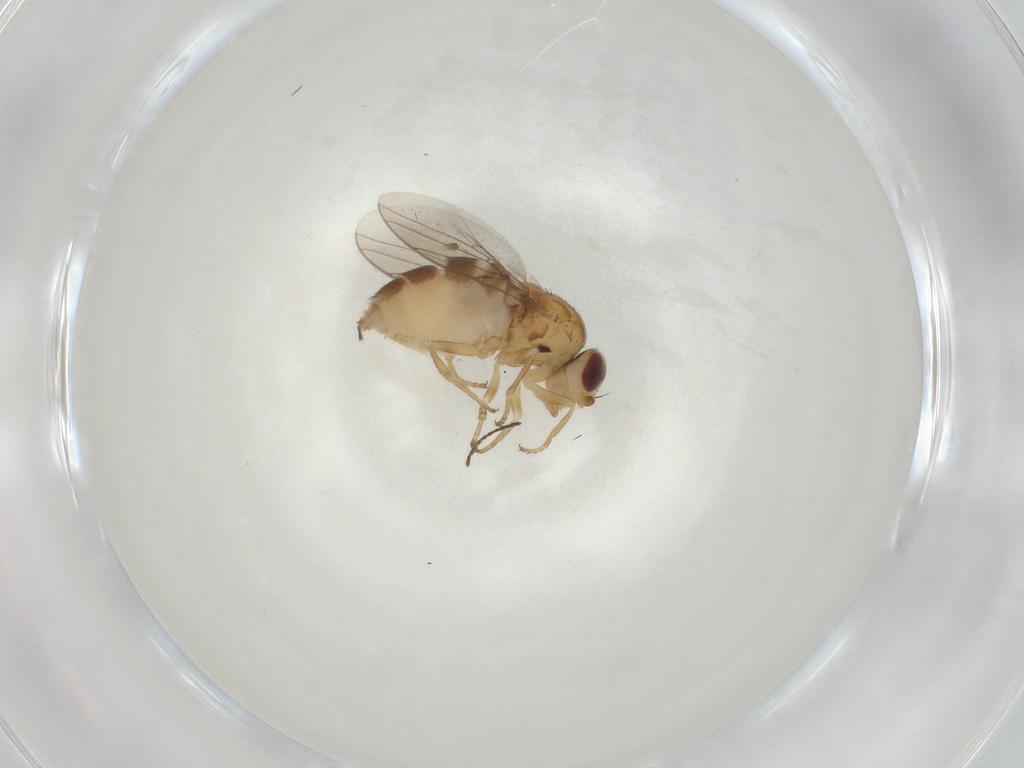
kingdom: Animalia
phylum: Arthropoda
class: Insecta
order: Diptera
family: Chloropidae
